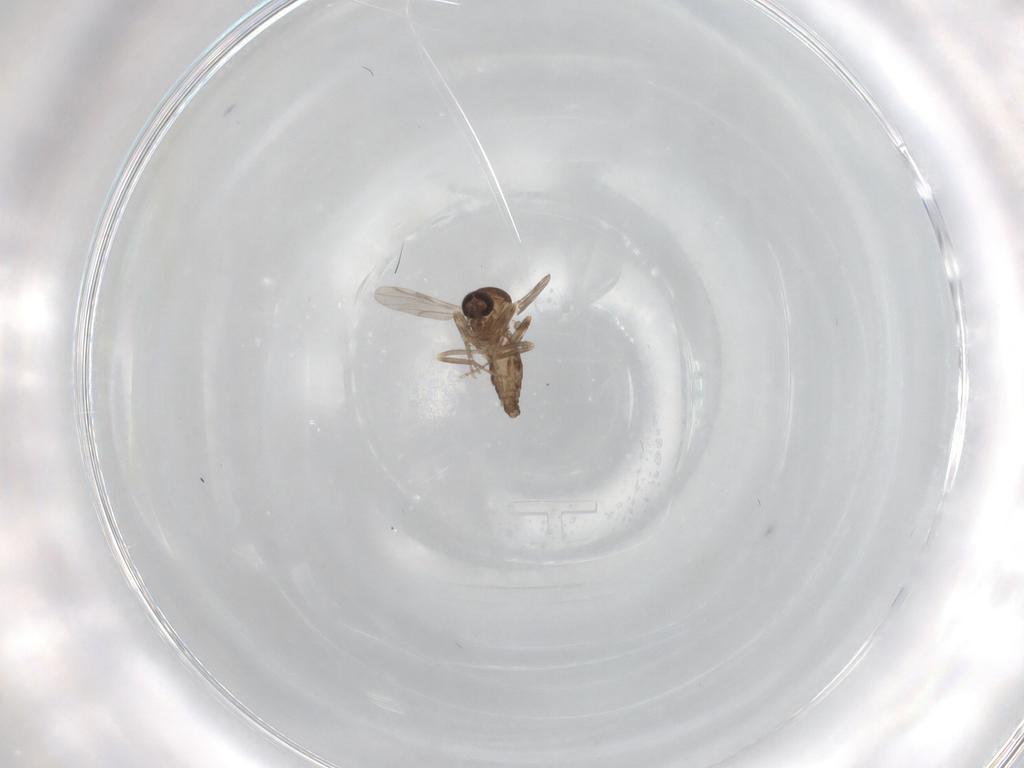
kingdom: Animalia
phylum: Arthropoda
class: Insecta
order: Diptera
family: Ceratopogonidae
